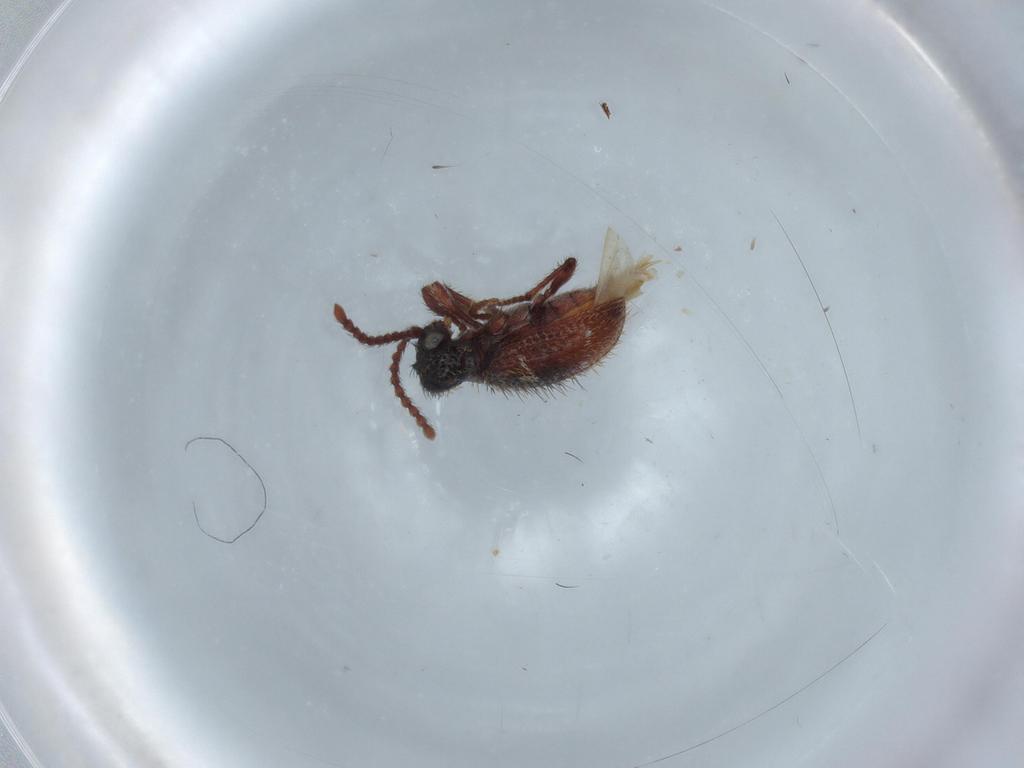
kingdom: Animalia
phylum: Arthropoda
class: Insecta
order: Coleoptera
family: Ptinidae
